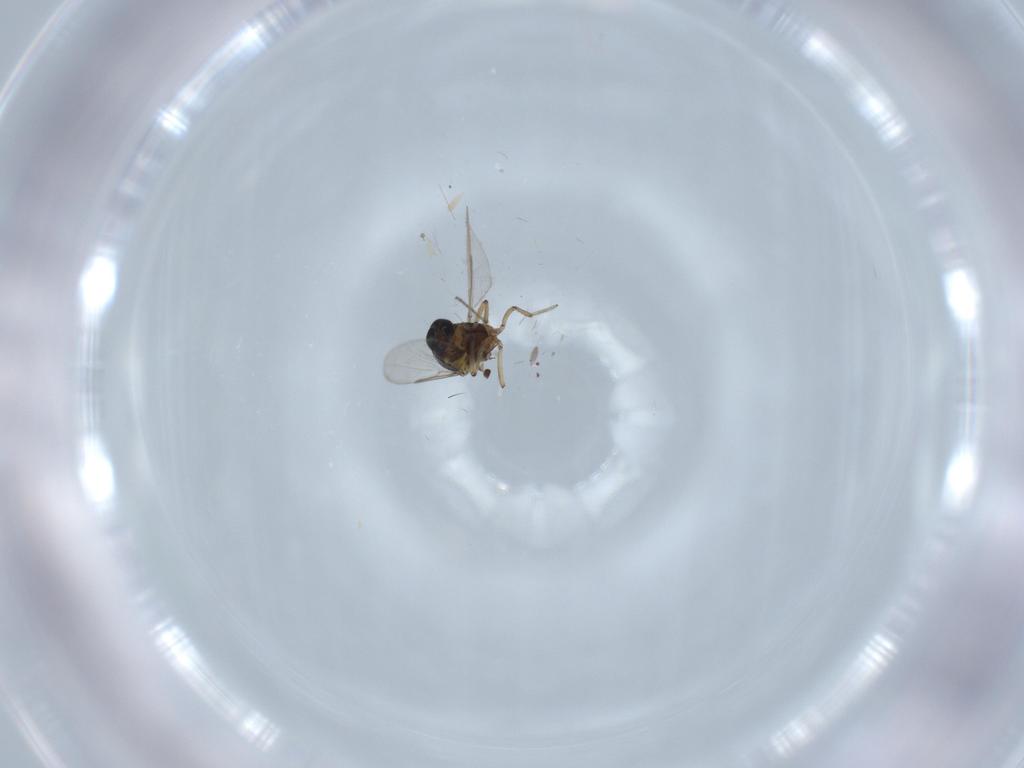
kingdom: Animalia
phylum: Arthropoda
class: Insecta
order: Diptera
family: Ceratopogonidae
